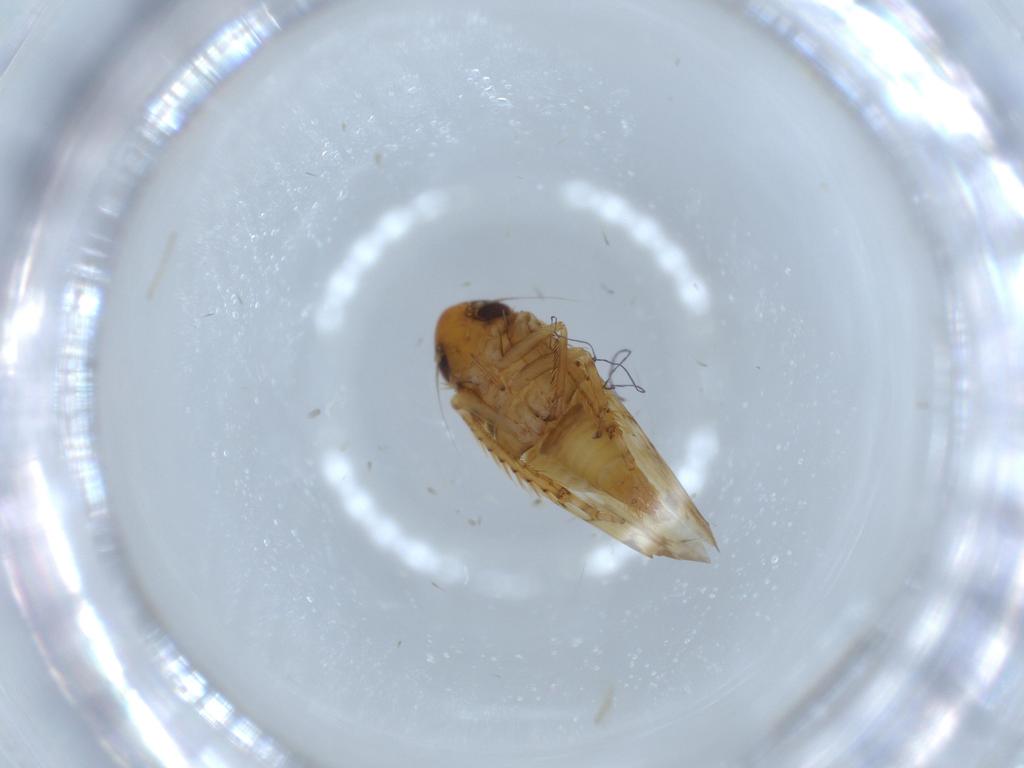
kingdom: Animalia
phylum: Arthropoda
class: Insecta
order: Hemiptera
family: Cicadellidae
